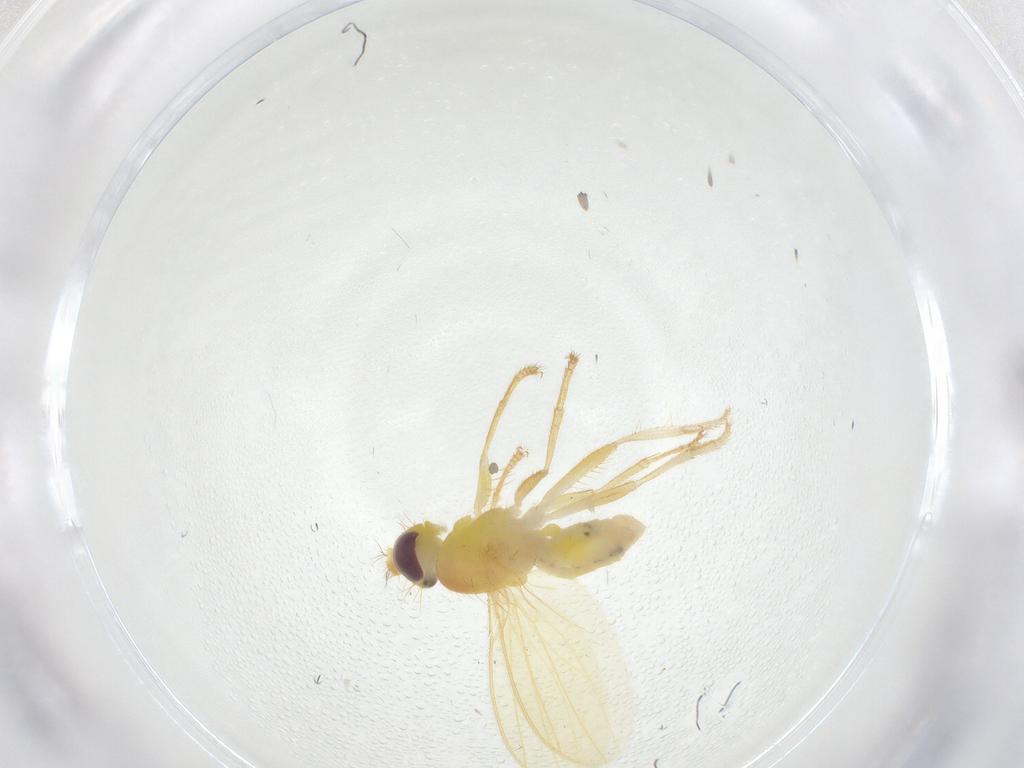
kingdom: Animalia
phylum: Arthropoda
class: Insecta
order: Diptera
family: Periscelididae
